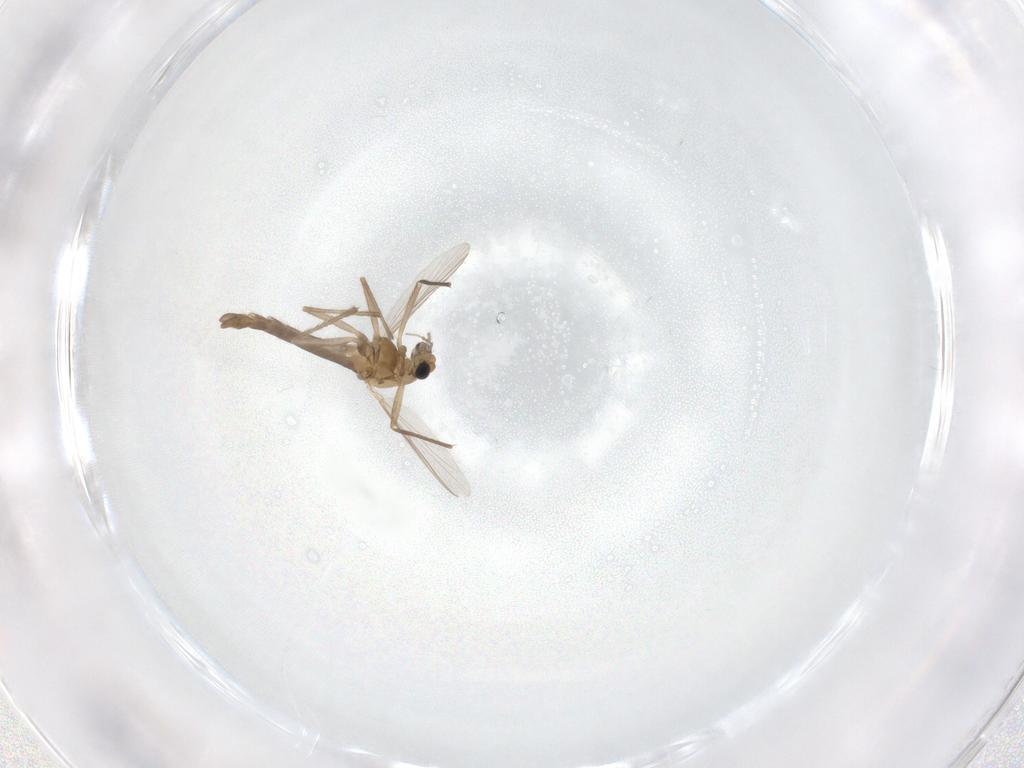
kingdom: Animalia
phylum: Arthropoda
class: Insecta
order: Diptera
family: Chironomidae
